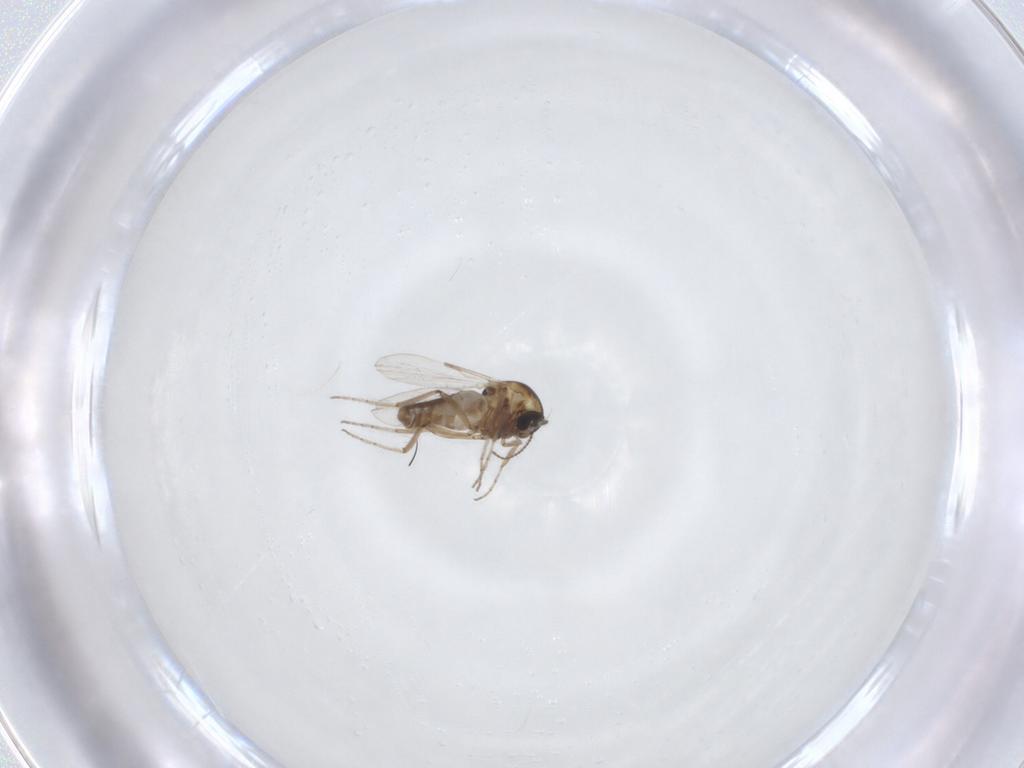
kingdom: Animalia
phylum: Arthropoda
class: Insecta
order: Diptera
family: Ceratopogonidae
